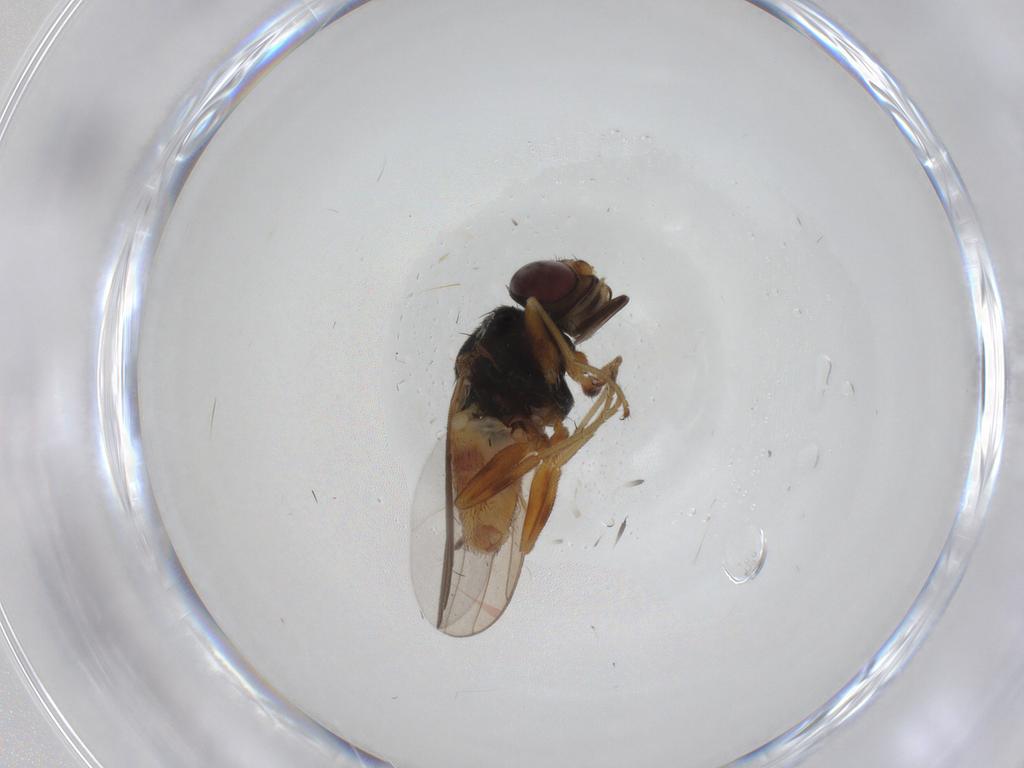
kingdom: Animalia
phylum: Arthropoda
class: Insecta
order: Diptera
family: Chloropidae
